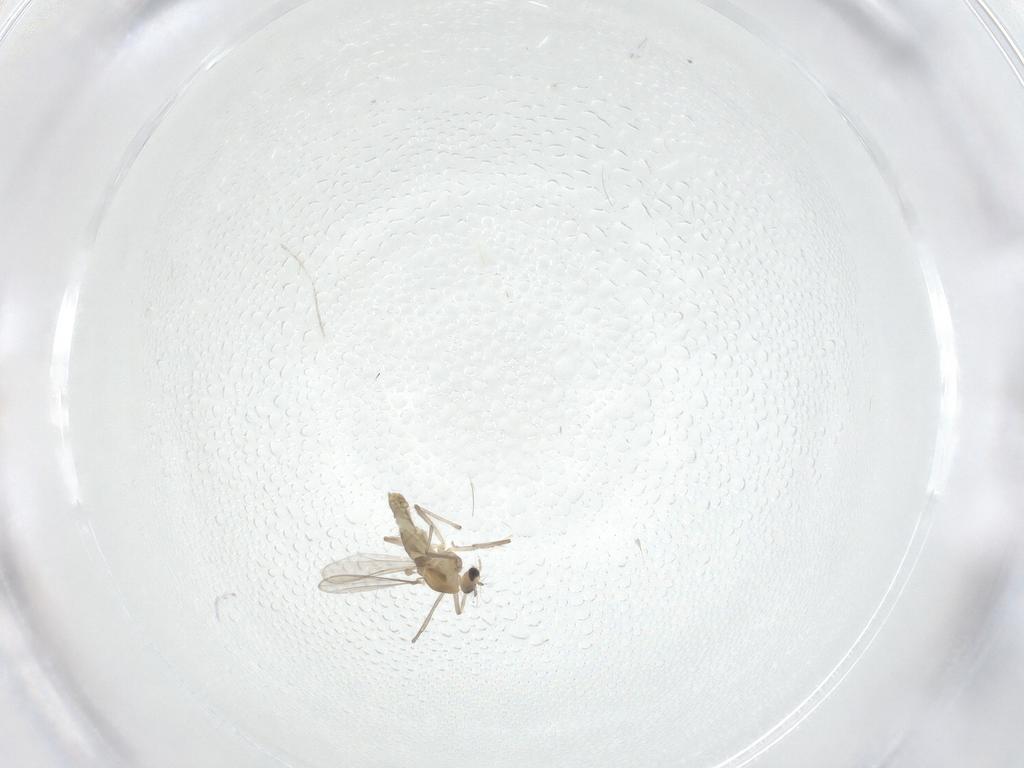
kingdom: Animalia
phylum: Arthropoda
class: Insecta
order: Diptera
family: Chironomidae
